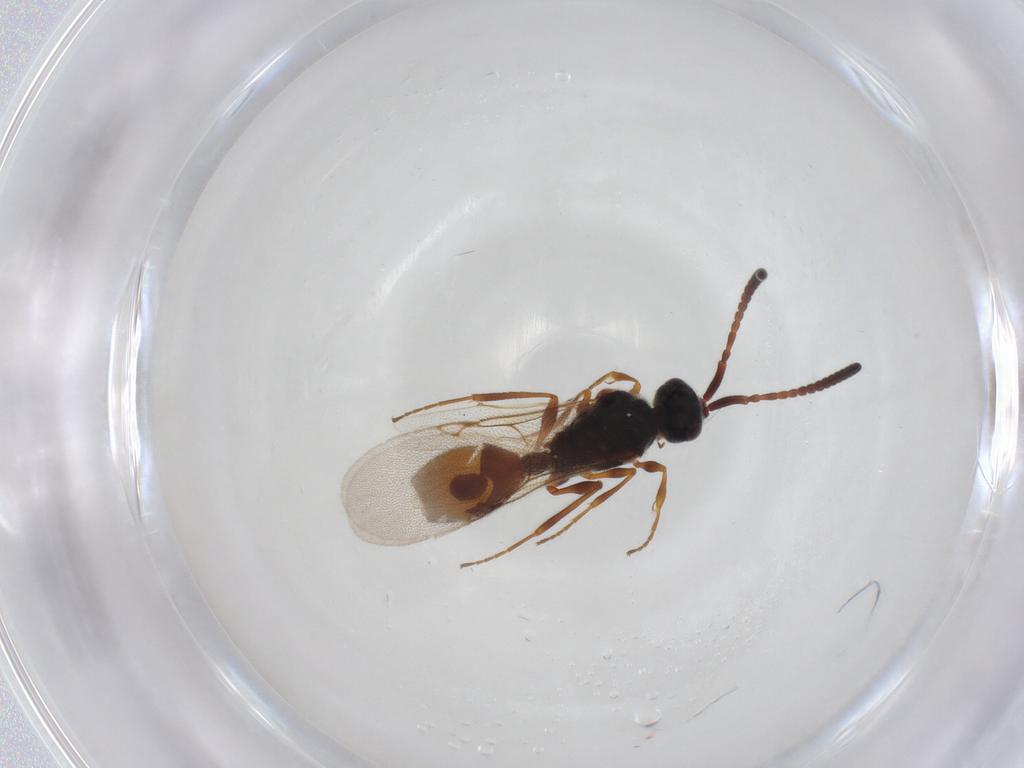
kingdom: Animalia
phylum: Arthropoda
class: Insecta
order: Hymenoptera
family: Diapriidae
